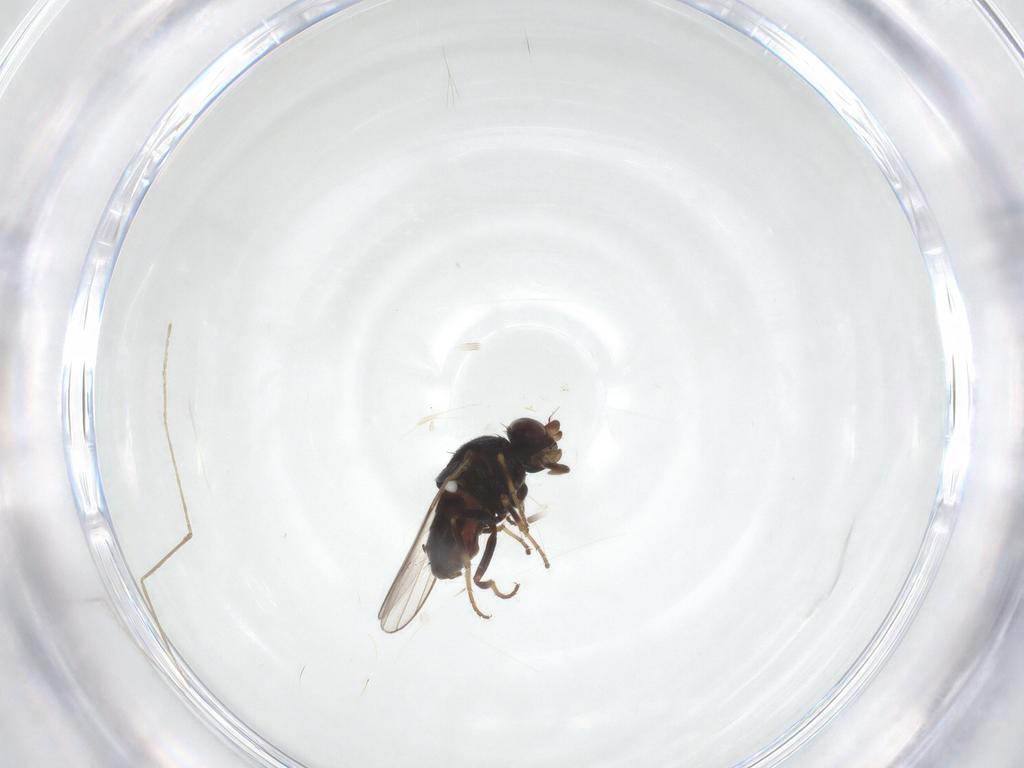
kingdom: Animalia
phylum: Arthropoda
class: Insecta
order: Diptera
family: Chloropidae
